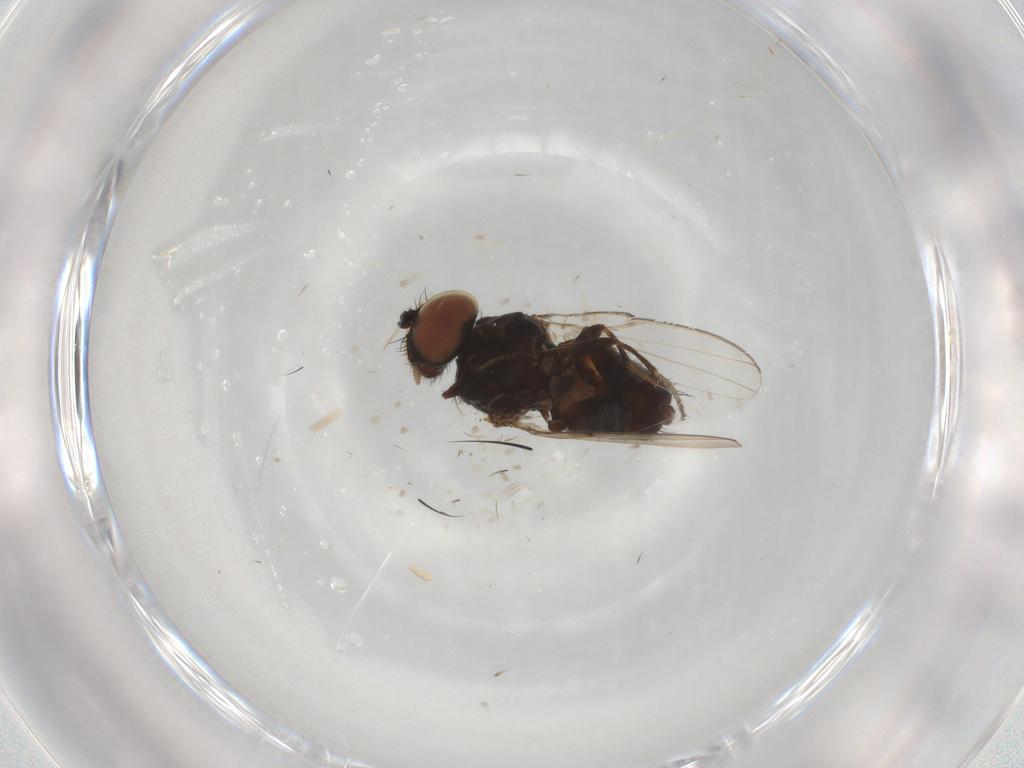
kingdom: Animalia
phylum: Arthropoda
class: Insecta
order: Diptera
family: Milichiidae
